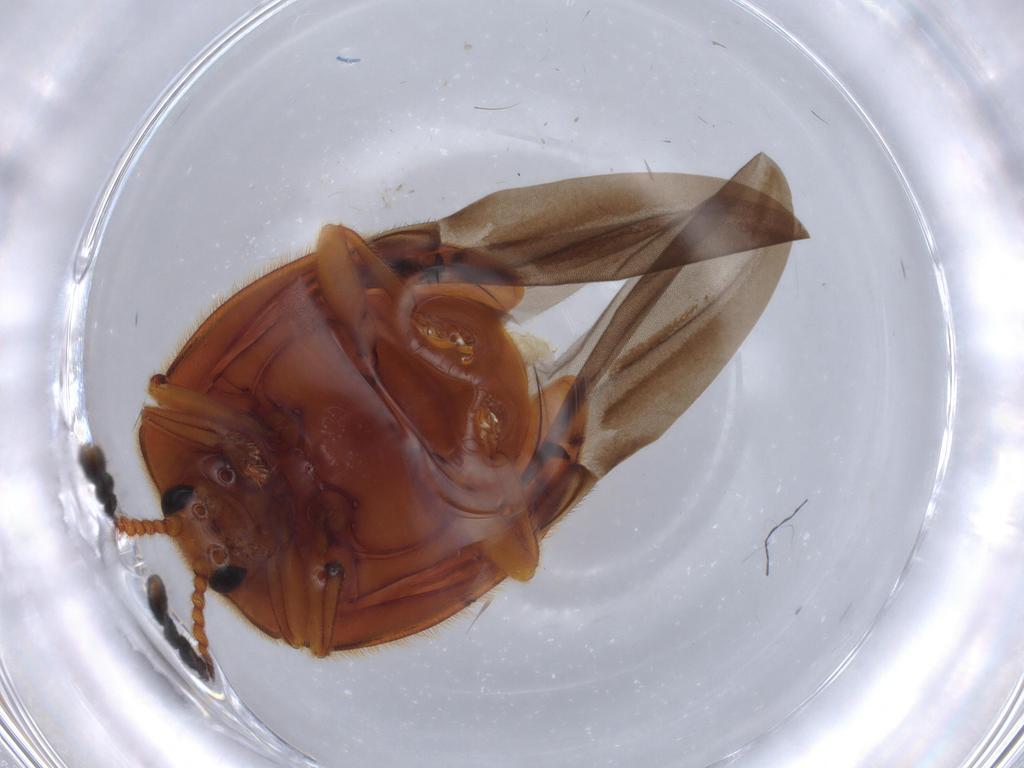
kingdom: Animalia
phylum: Arthropoda
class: Insecta
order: Coleoptera
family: Endomychidae
